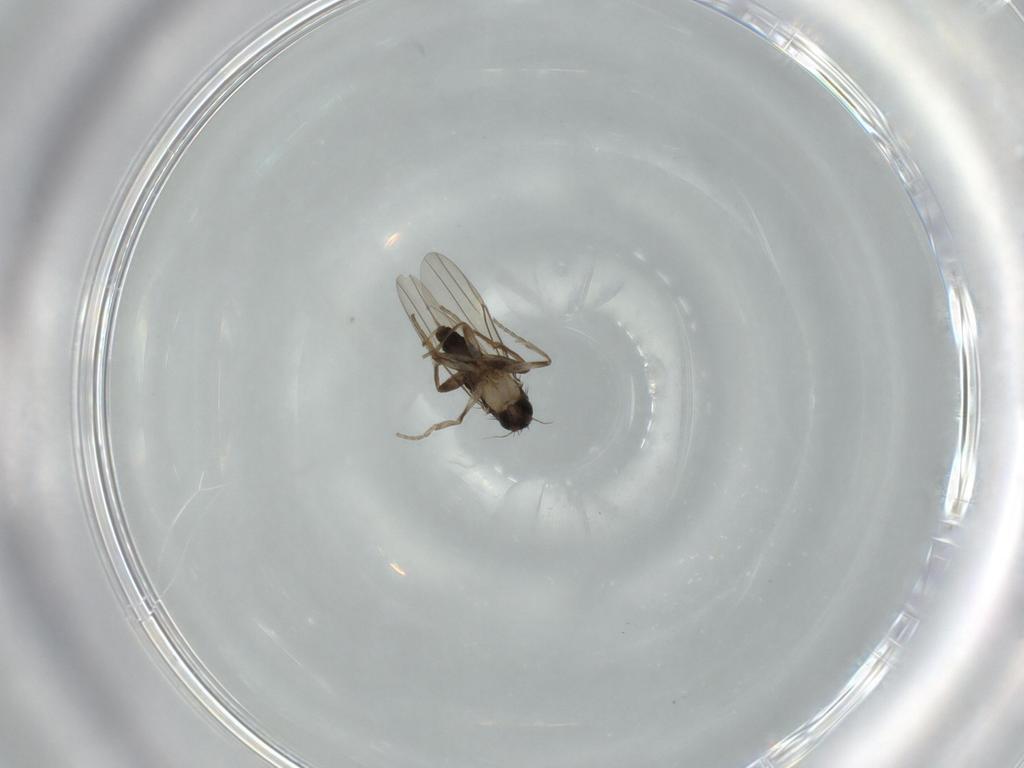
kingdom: Animalia
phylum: Arthropoda
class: Insecta
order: Diptera
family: Phoridae
